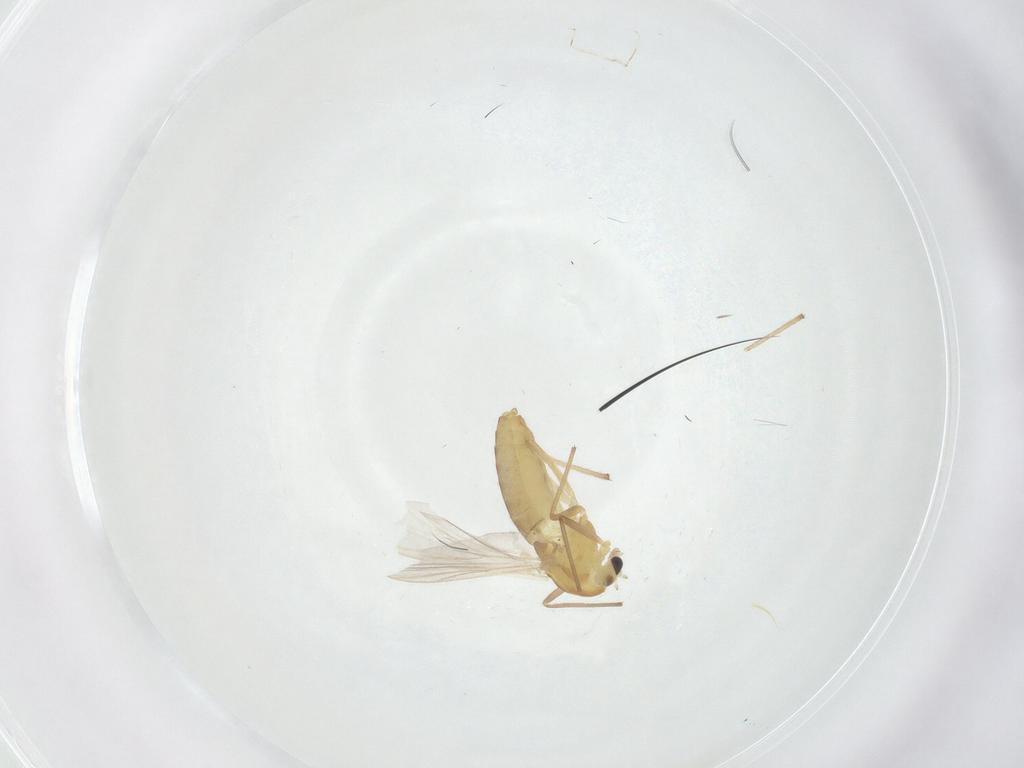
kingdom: Animalia
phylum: Arthropoda
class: Insecta
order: Diptera
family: Chironomidae
